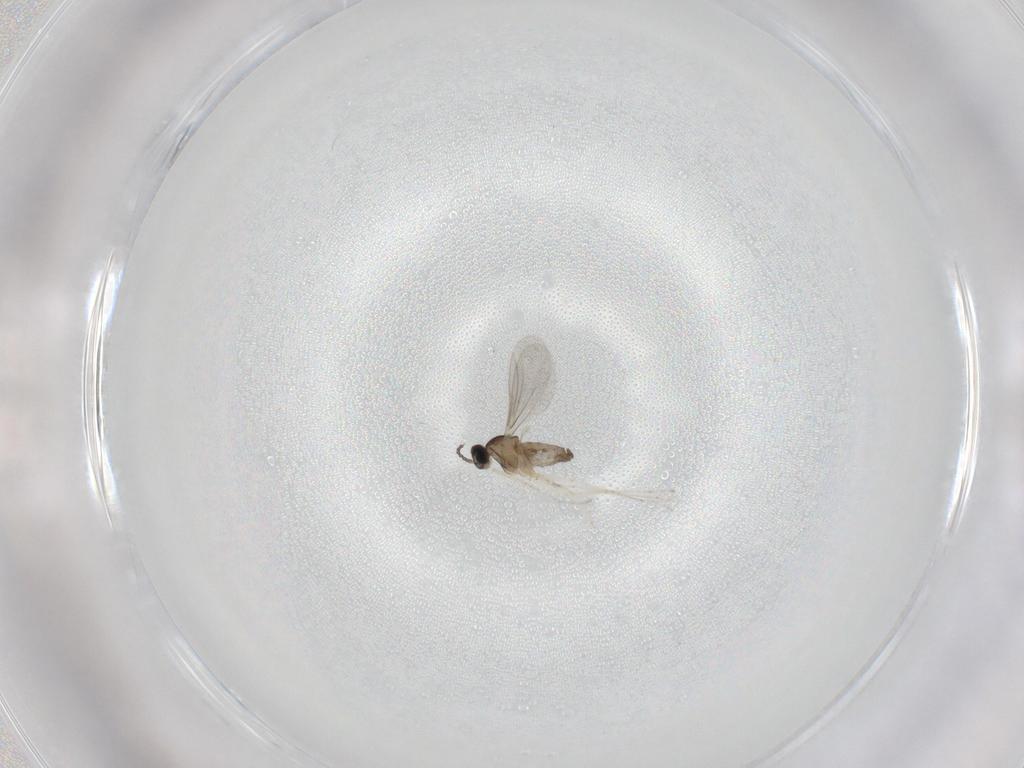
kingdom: Animalia
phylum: Arthropoda
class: Insecta
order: Diptera
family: Cecidomyiidae
